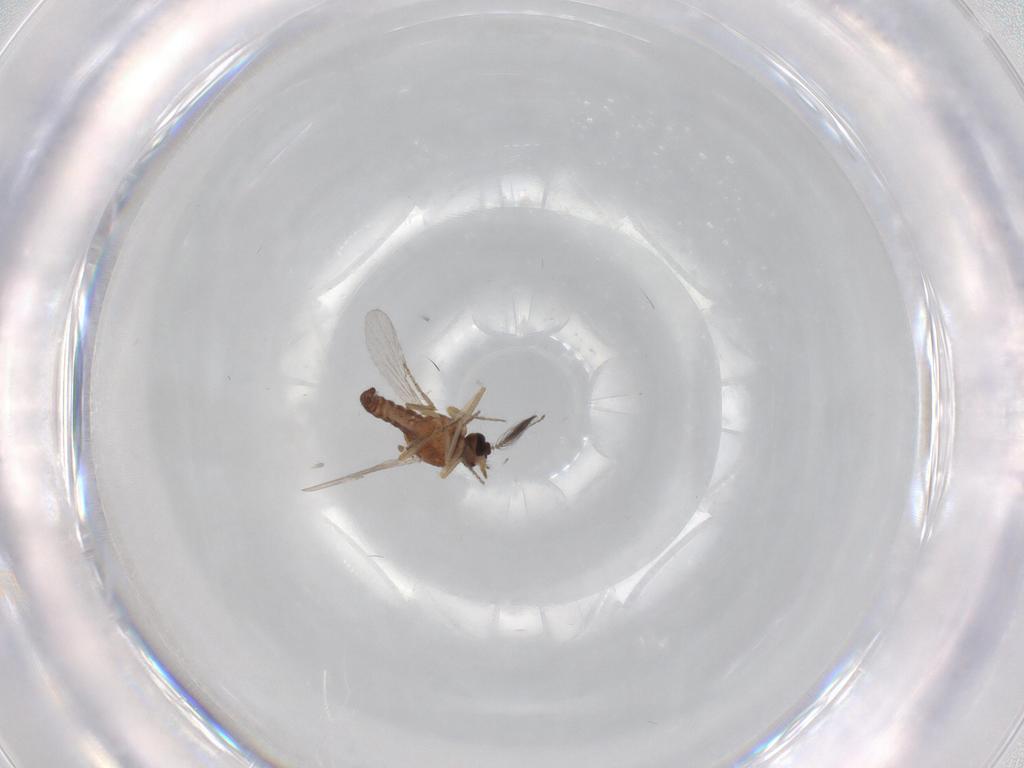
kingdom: Animalia
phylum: Arthropoda
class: Insecta
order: Diptera
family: Ceratopogonidae
